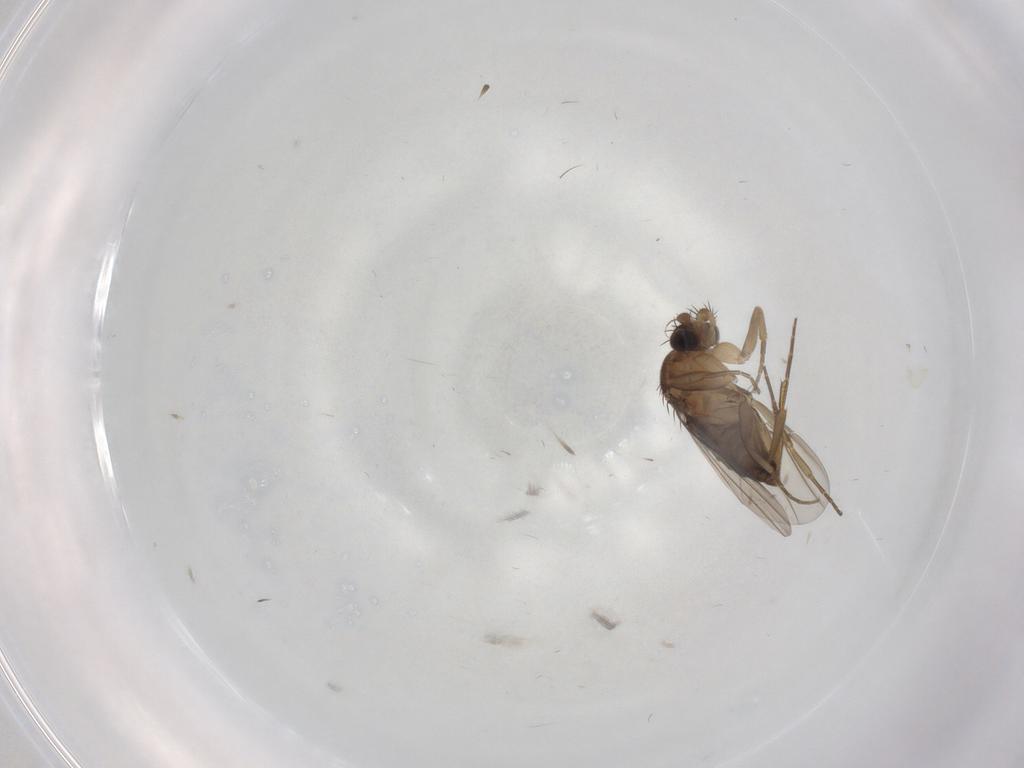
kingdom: Animalia
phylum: Arthropoda
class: Insecta
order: Diptera
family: Phoridae
